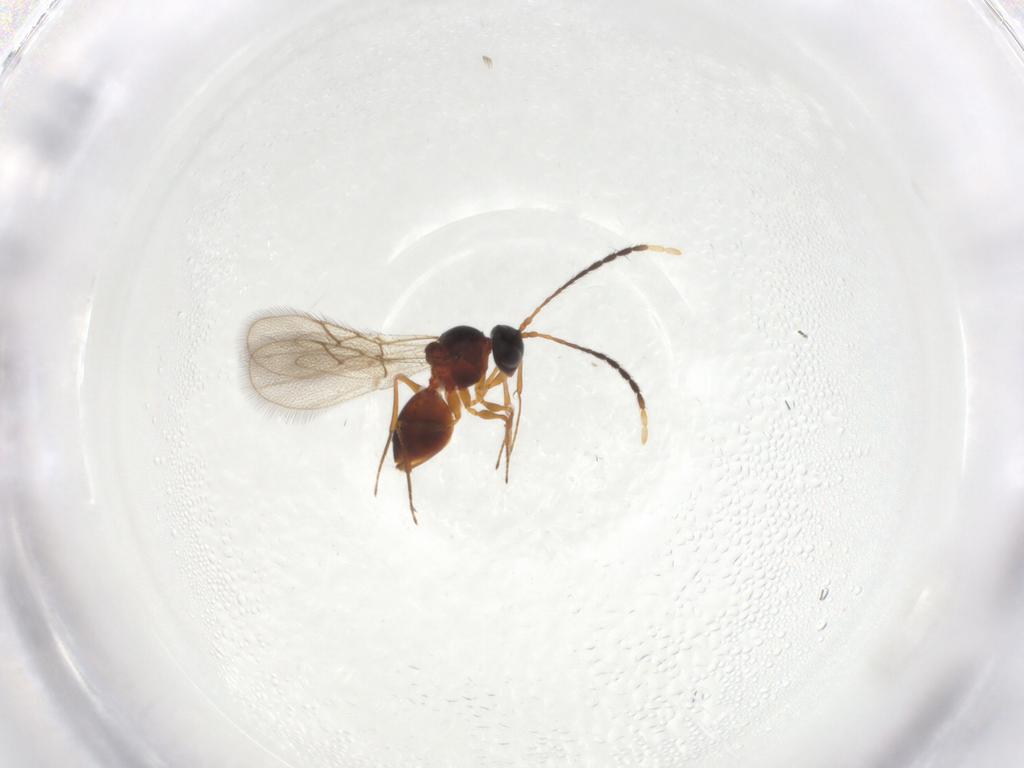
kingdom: Animalia
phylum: Arthropoda
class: Insecta
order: Hymenoptera
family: Figitidae
